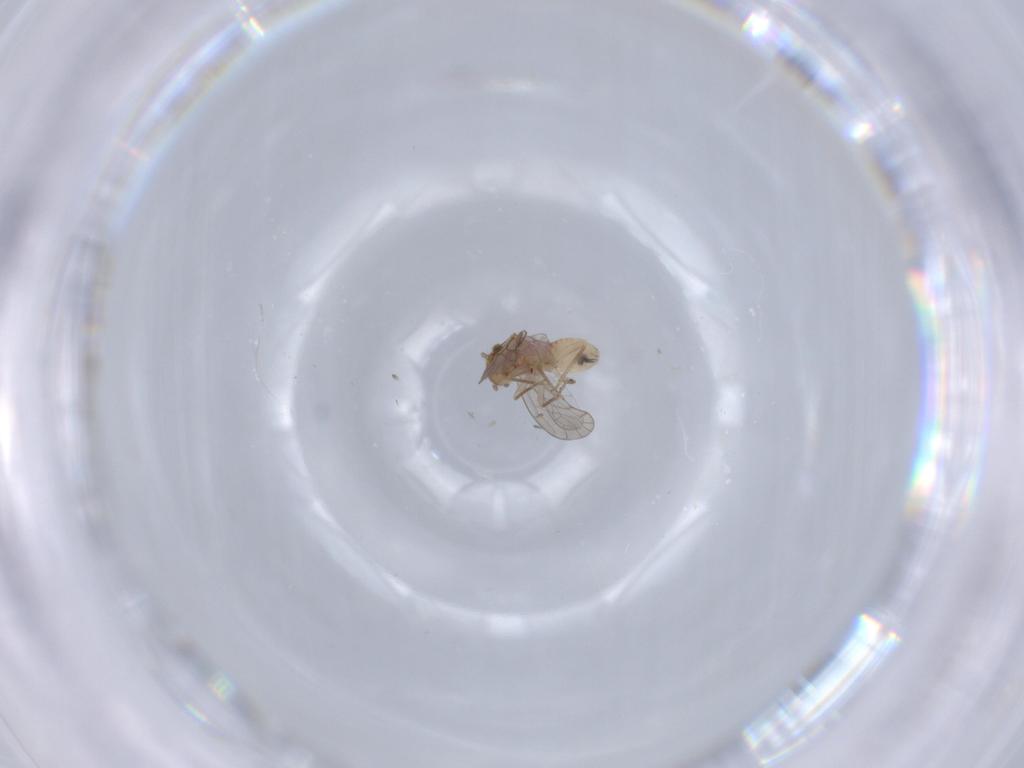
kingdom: Animalia
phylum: Arthropoda
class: Insecta
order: Psocodea
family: Ectopsocidae
